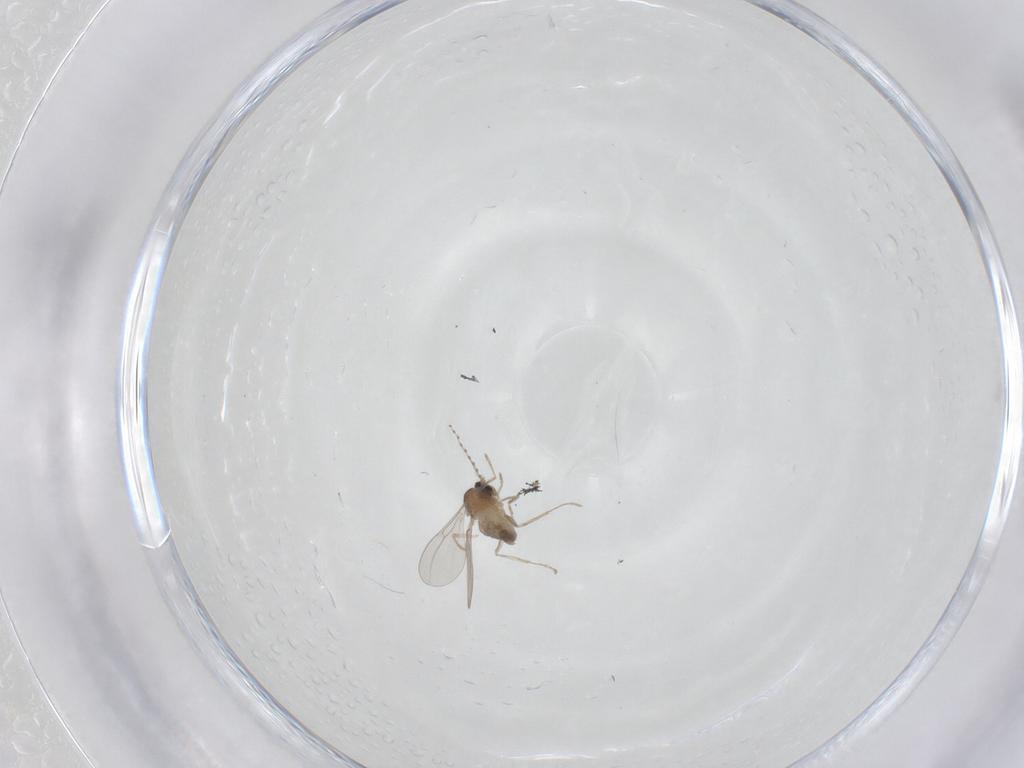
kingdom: Animalia
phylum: Arthropoda
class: Insecta
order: Diptera
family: Cecidomyiidae
